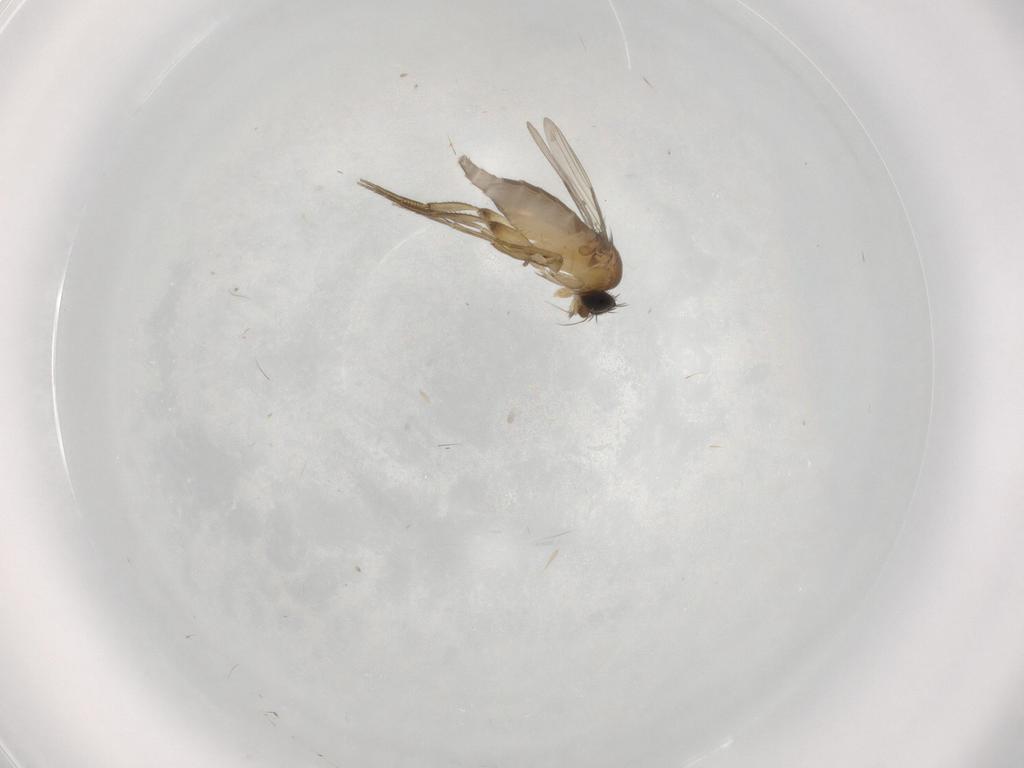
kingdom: Animalia
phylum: Arthropoda
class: Insecta
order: Diptera
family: Phoridae
